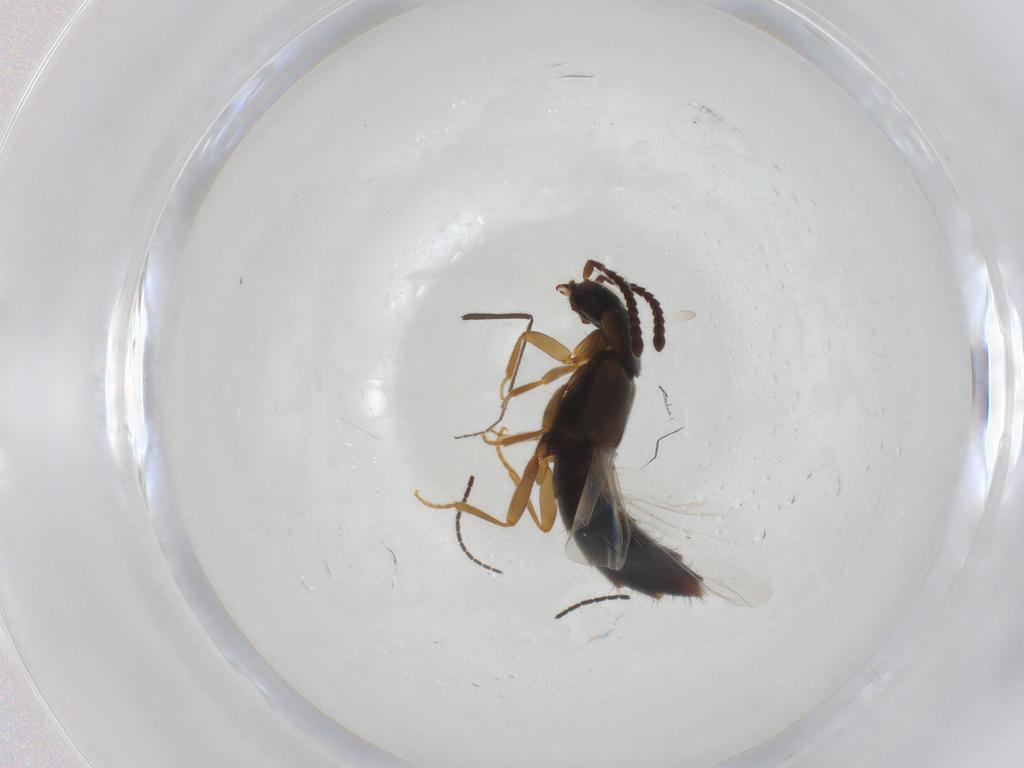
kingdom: Animalia
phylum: Arthropoda
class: Insecta
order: Coleoptera
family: Staphylinidae
